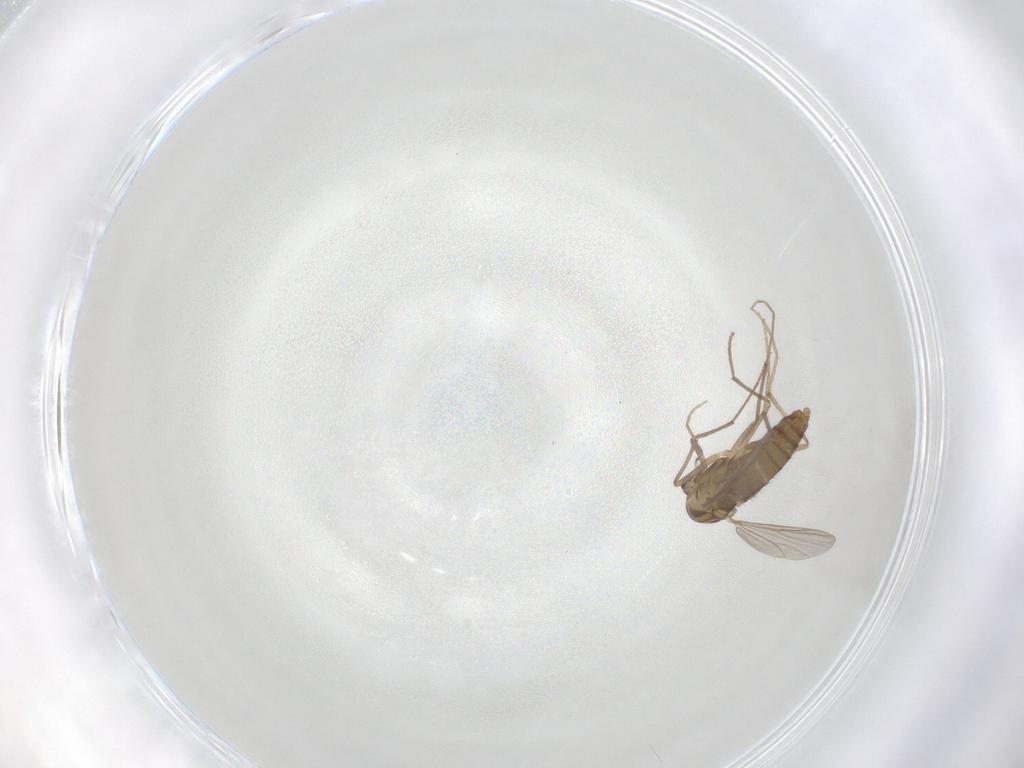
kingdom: Animalia
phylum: Arthropoda
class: Insecta
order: Diptera
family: Chironomidae
